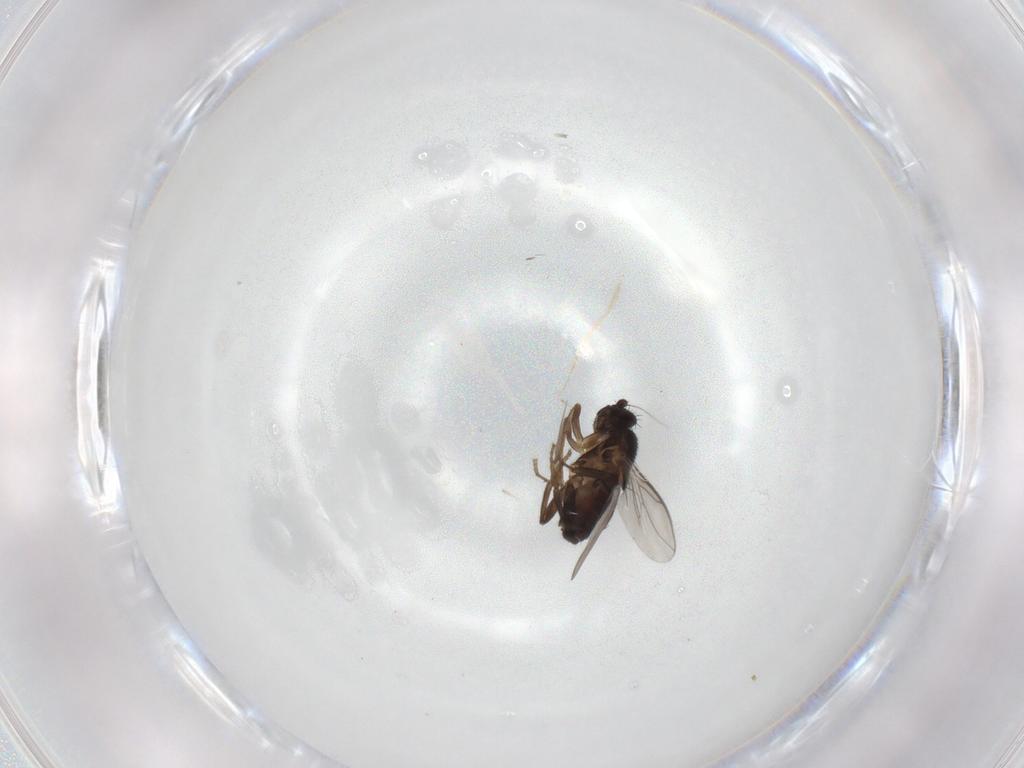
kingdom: Animalia
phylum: Arthropoda
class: Insecta
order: Diptera
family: Sphaeroceridae
